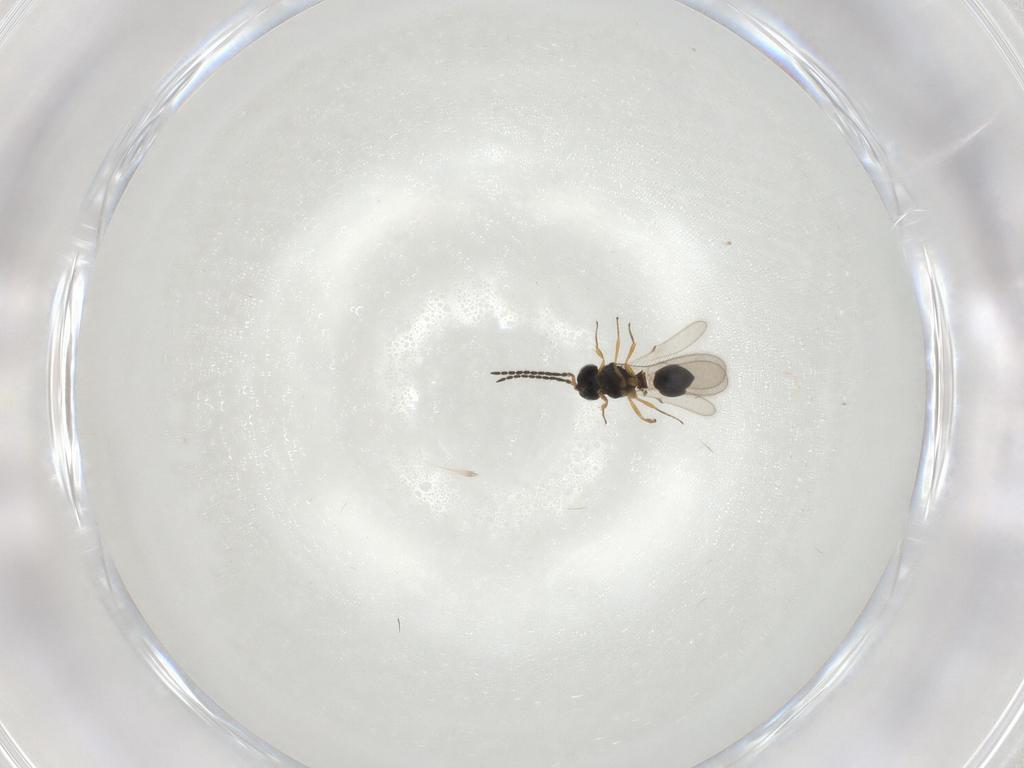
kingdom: Animalia
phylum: Arthropoda
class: Insecta
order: Hymenoptera
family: Scelionidae
